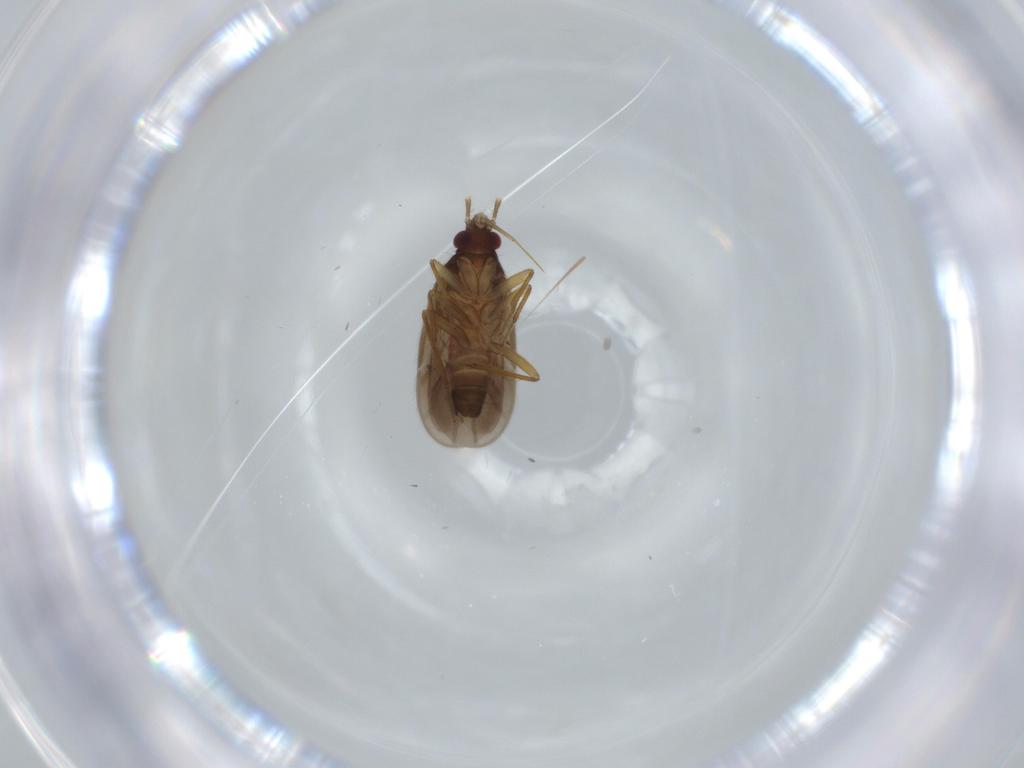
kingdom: Animalia
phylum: Arthropoda
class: Insecta
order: Hemiptera
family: Ceratocombidae
